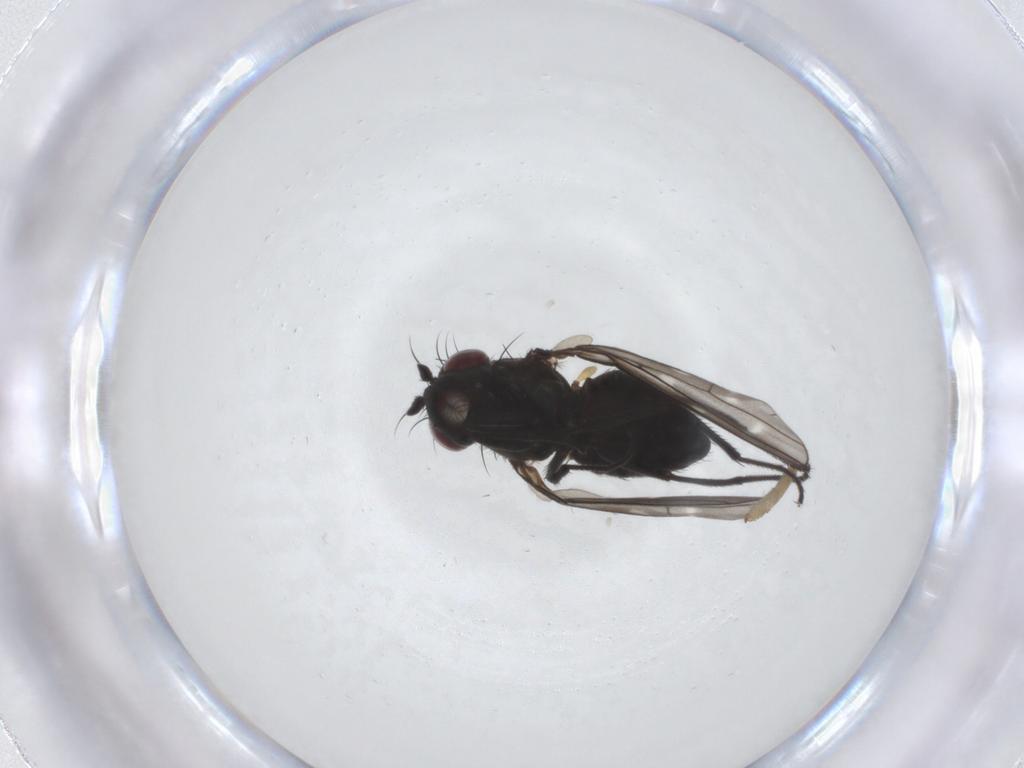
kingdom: Animalia
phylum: Arthropoda
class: Insecta
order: Diptera
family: Ephydridae
